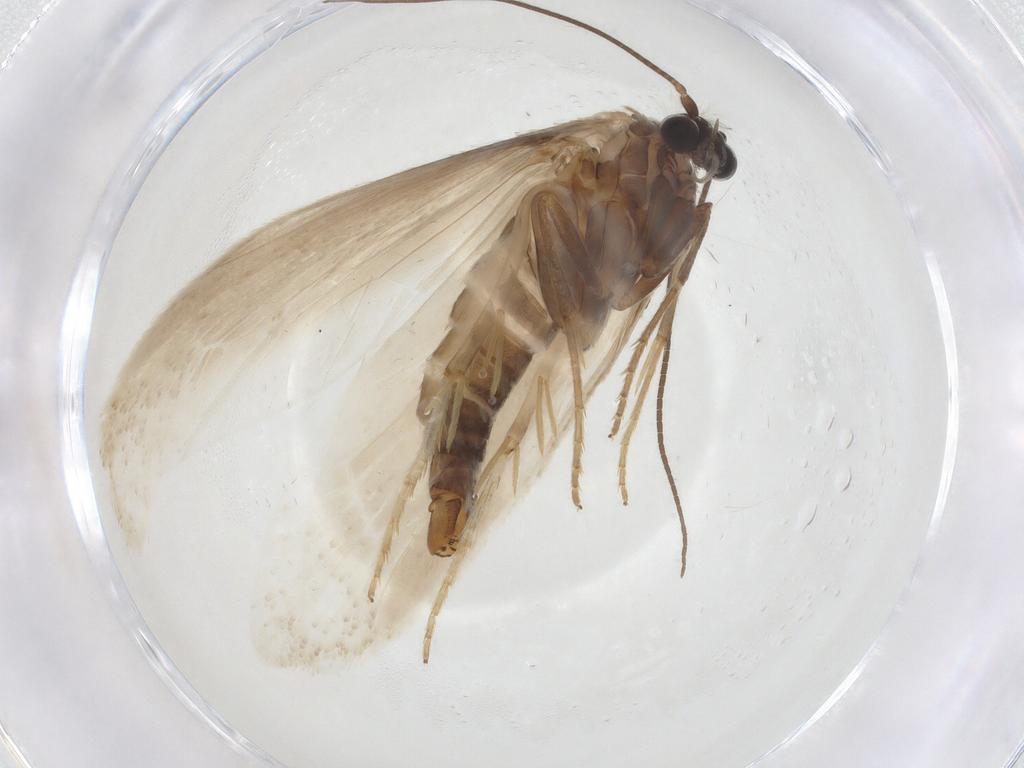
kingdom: Animalia
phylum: Arthropoda
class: Insecta
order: Lepidoptera
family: Tridentaformidae
